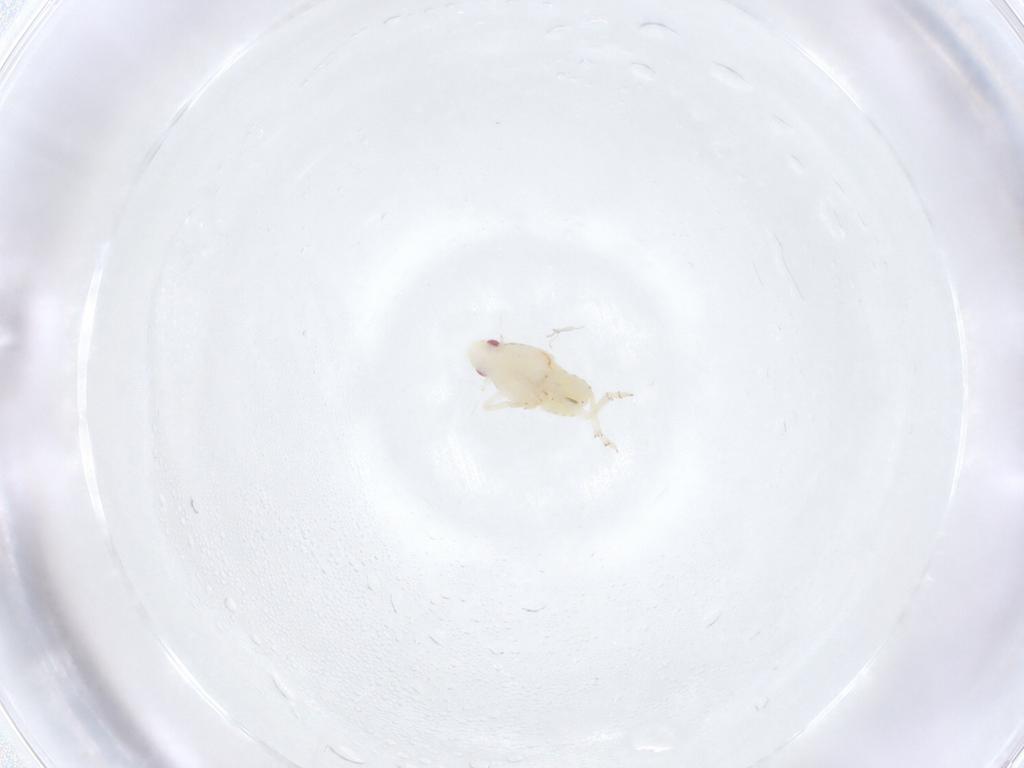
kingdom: Animalia
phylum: Arthropoda
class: Insecta
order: Hemiptera
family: Flatidae
